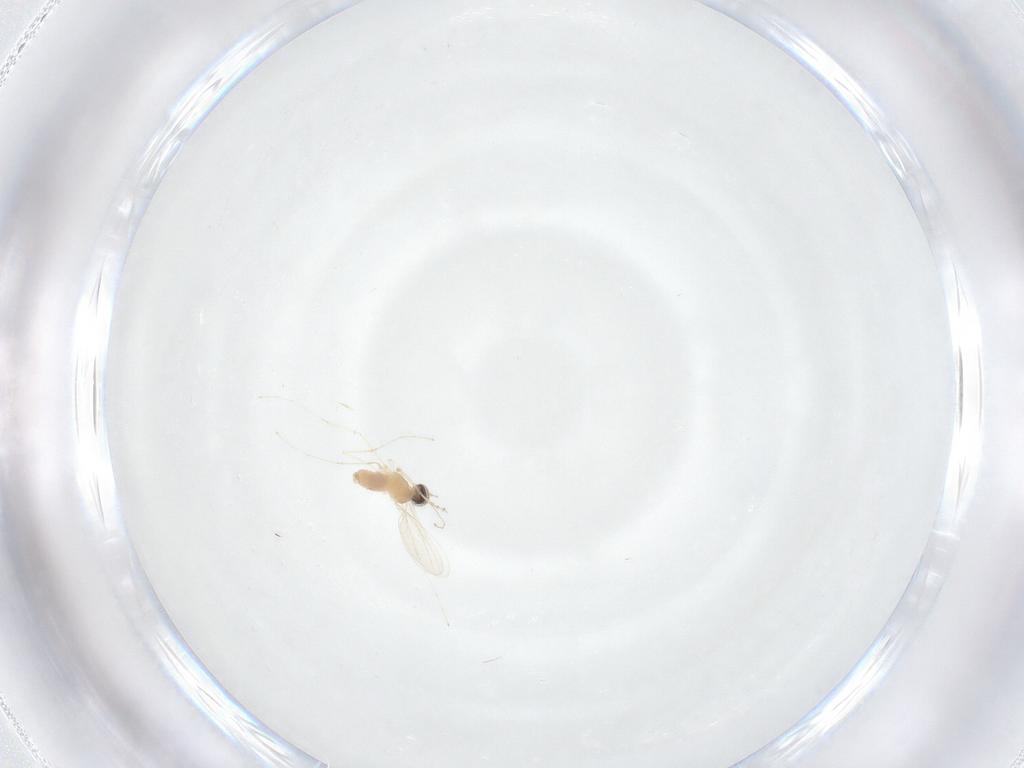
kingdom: Animalia
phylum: Arthropoda
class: Insecta
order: Diptera
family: Cecidomyiidae
